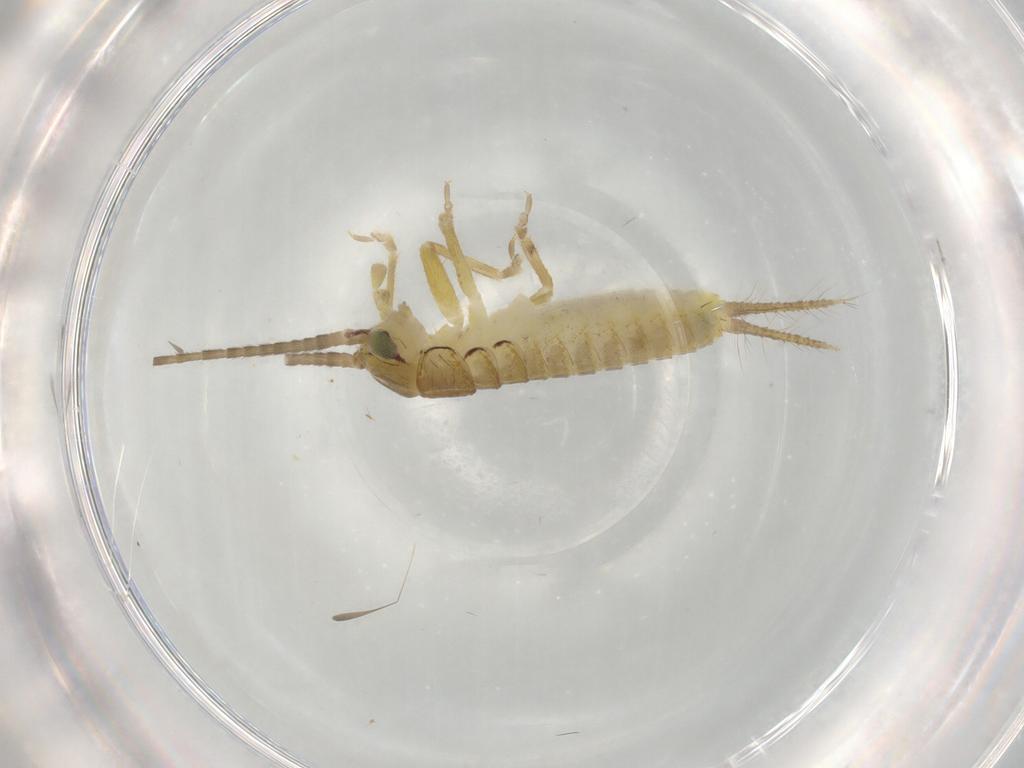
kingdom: Animalia
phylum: Arthropoda
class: Insecta
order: Orthoptera
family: Gryllidae
